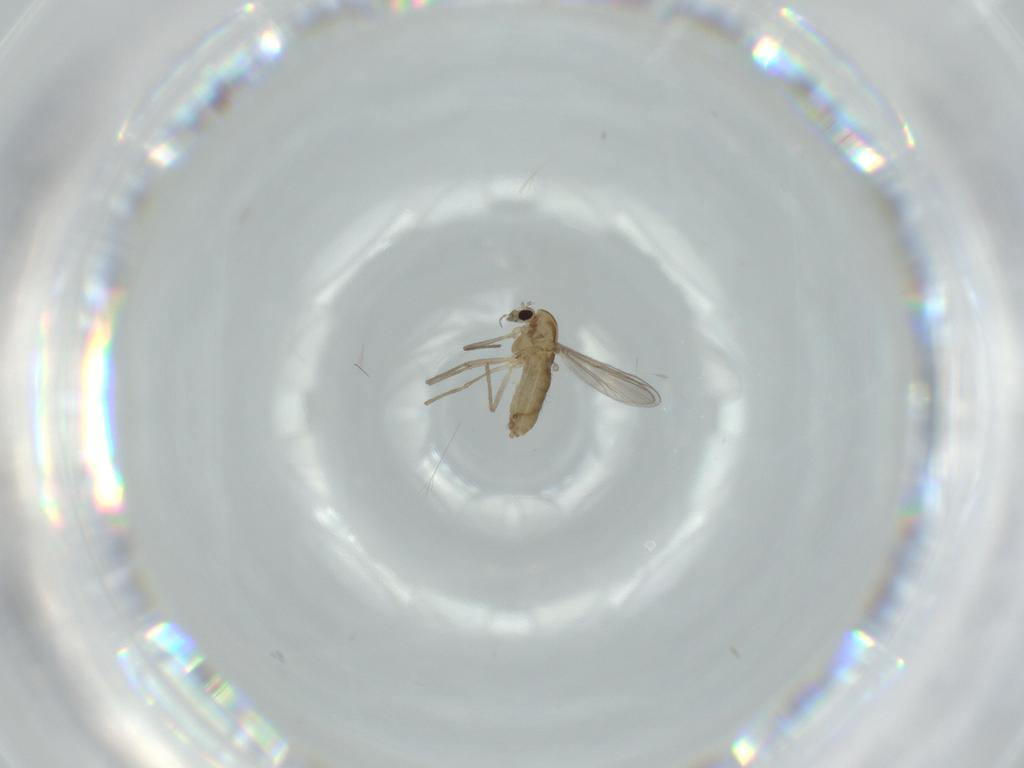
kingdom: Animalia
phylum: Arthropoda
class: Insecta
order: Diptera
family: Chironomidae
